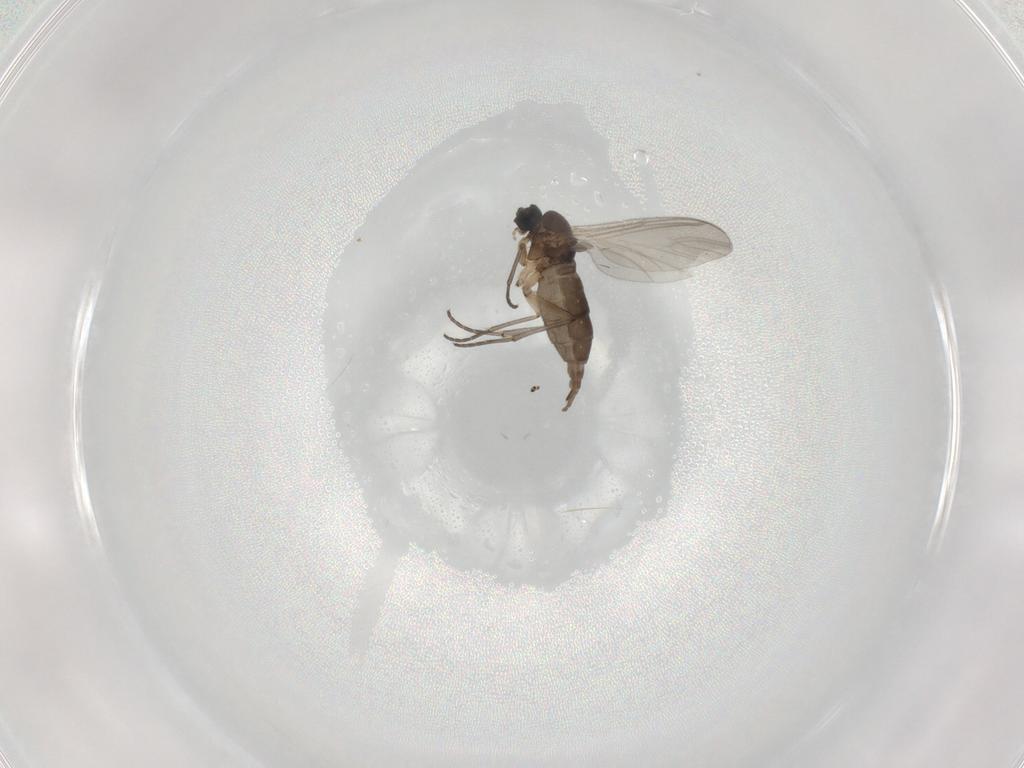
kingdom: Animalia
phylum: Arthropoda
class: Insecta
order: Diptera
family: Sciaridae
